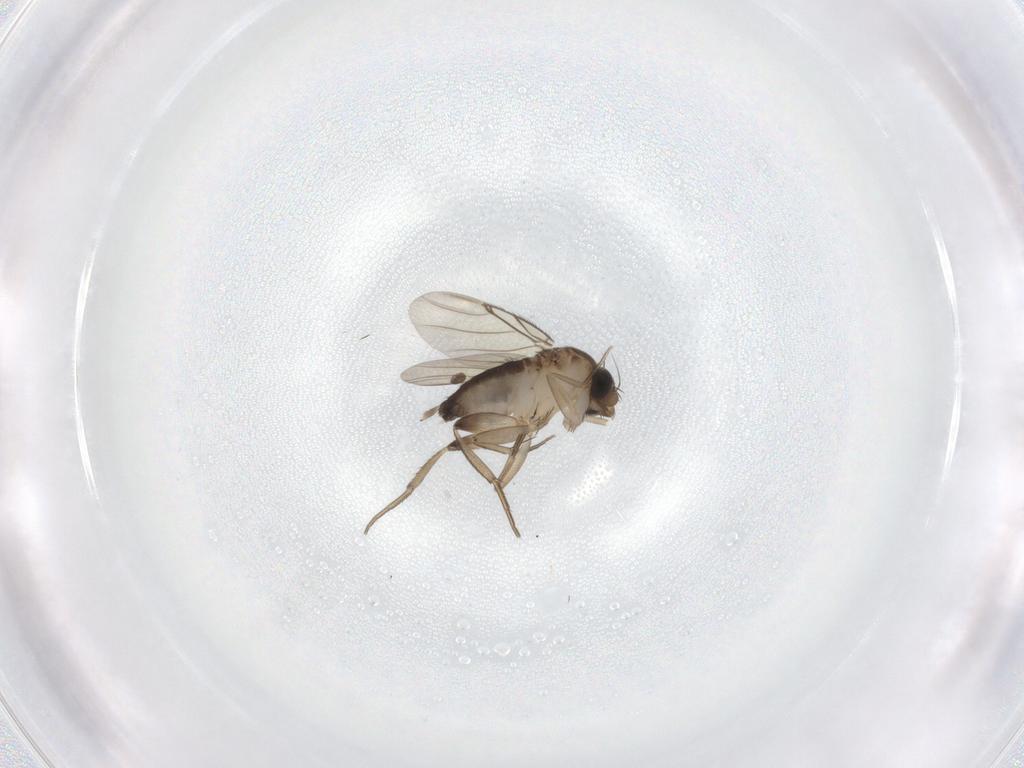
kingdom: Animalia
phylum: Arthropoda
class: Insecta
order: Diptera
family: Phoridae
